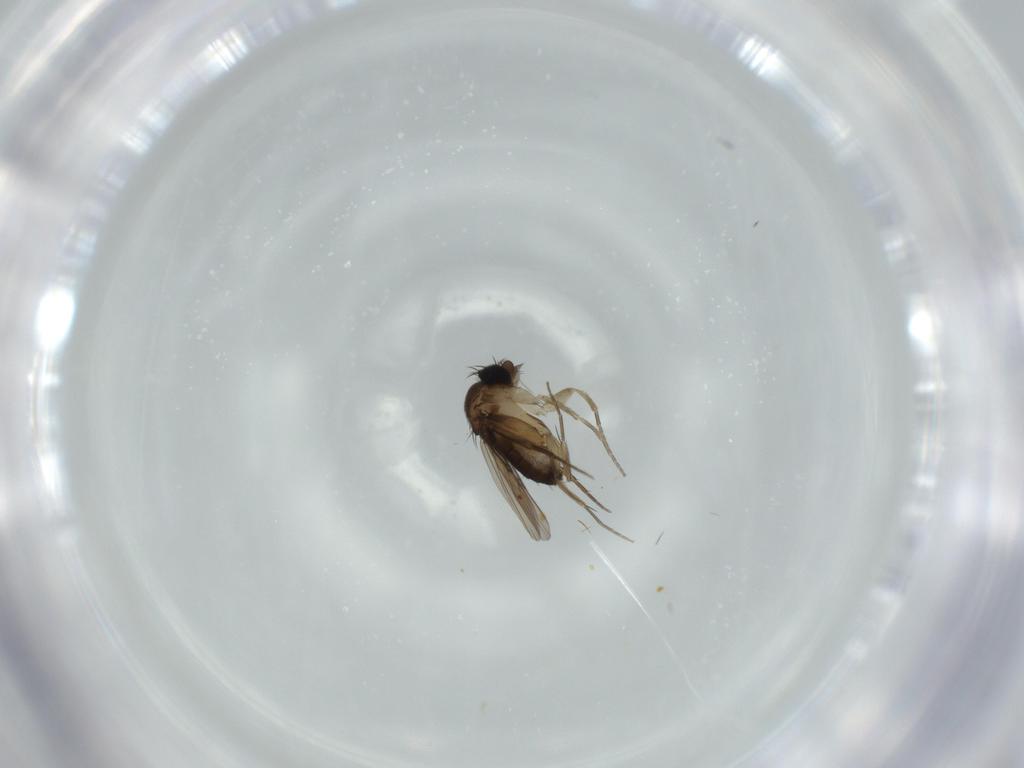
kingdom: Animalia
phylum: Arthropoda
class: Insecta
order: Diptera
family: Phoridae
